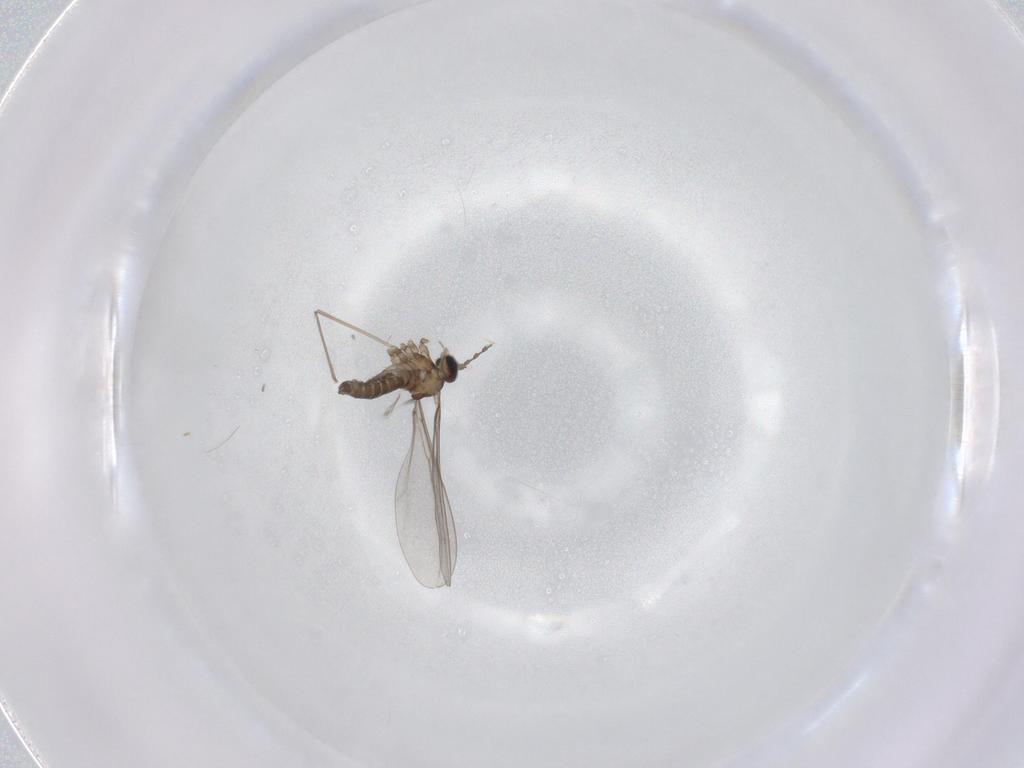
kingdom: Animalia
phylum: Arthropoda
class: Insecta
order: Diptera
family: Cecidomyiidae
